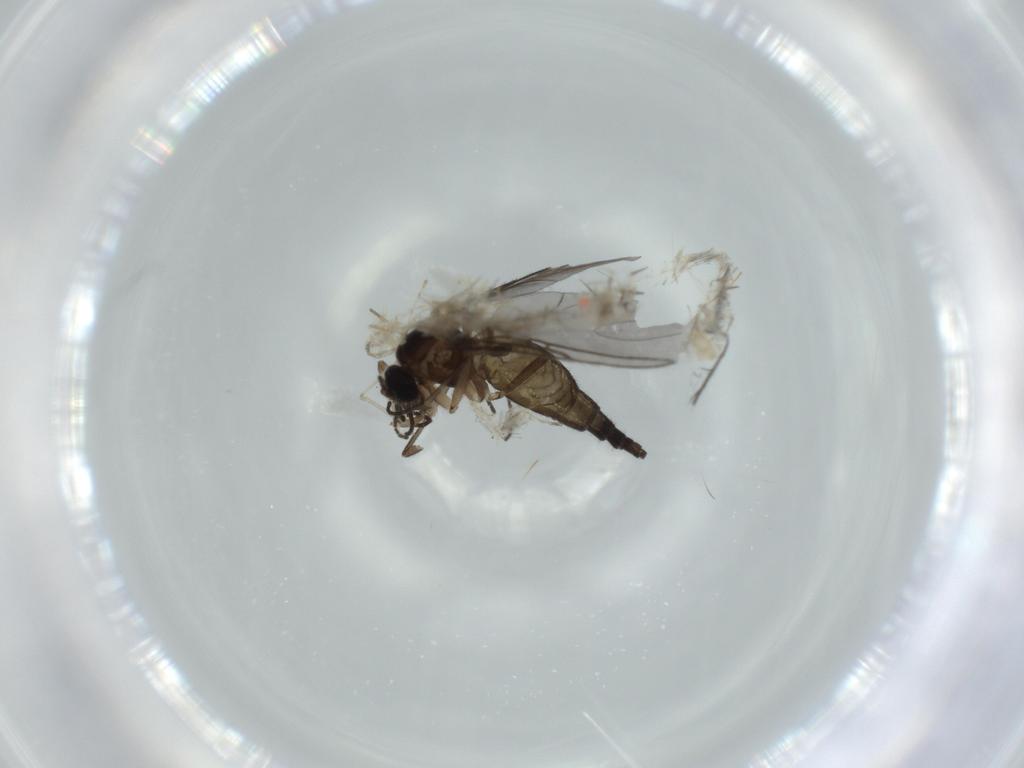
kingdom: Animalia
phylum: Arthropoda
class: Insecta
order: Diptera
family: Sciaridae
